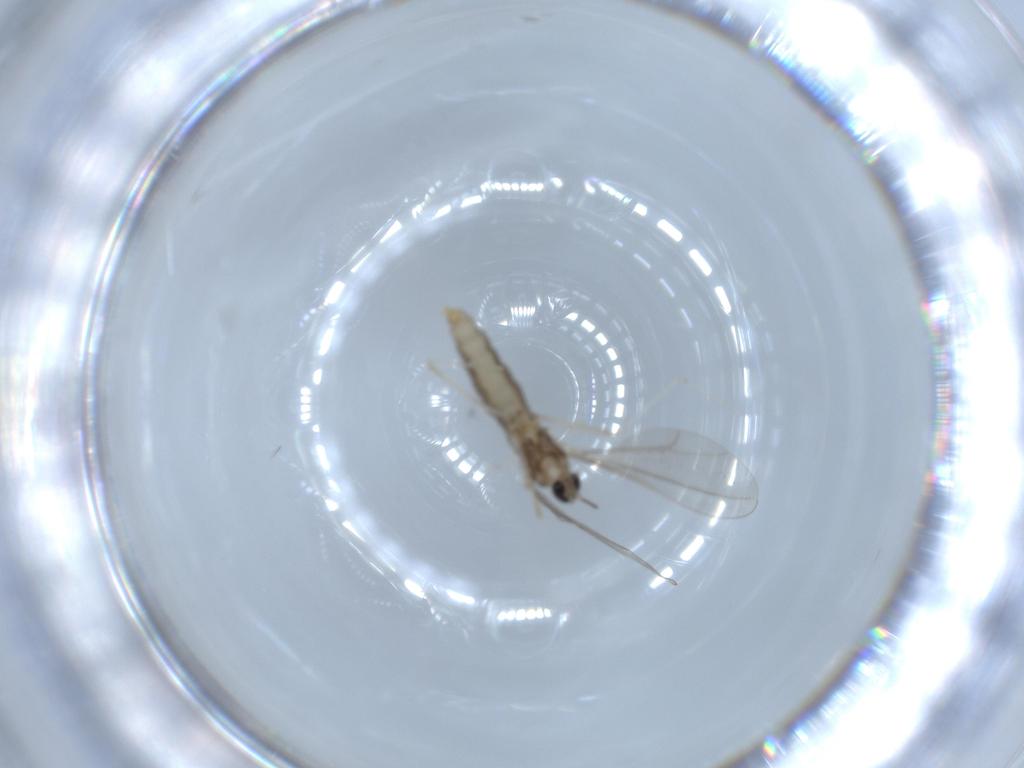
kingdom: Animalia
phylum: Arthropoda
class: Insecta
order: Diptera
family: Cecidomyiidae
